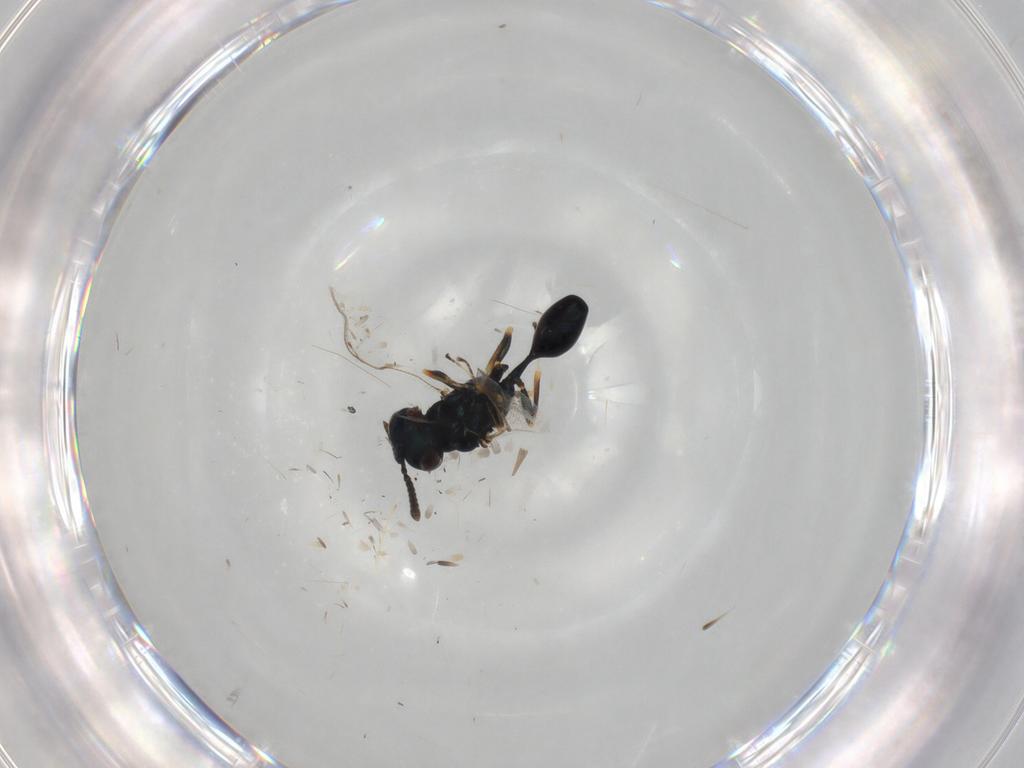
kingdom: Animalia
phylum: Arthropoda
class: Insecta
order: Hymenoptera
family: Pteromalidae
